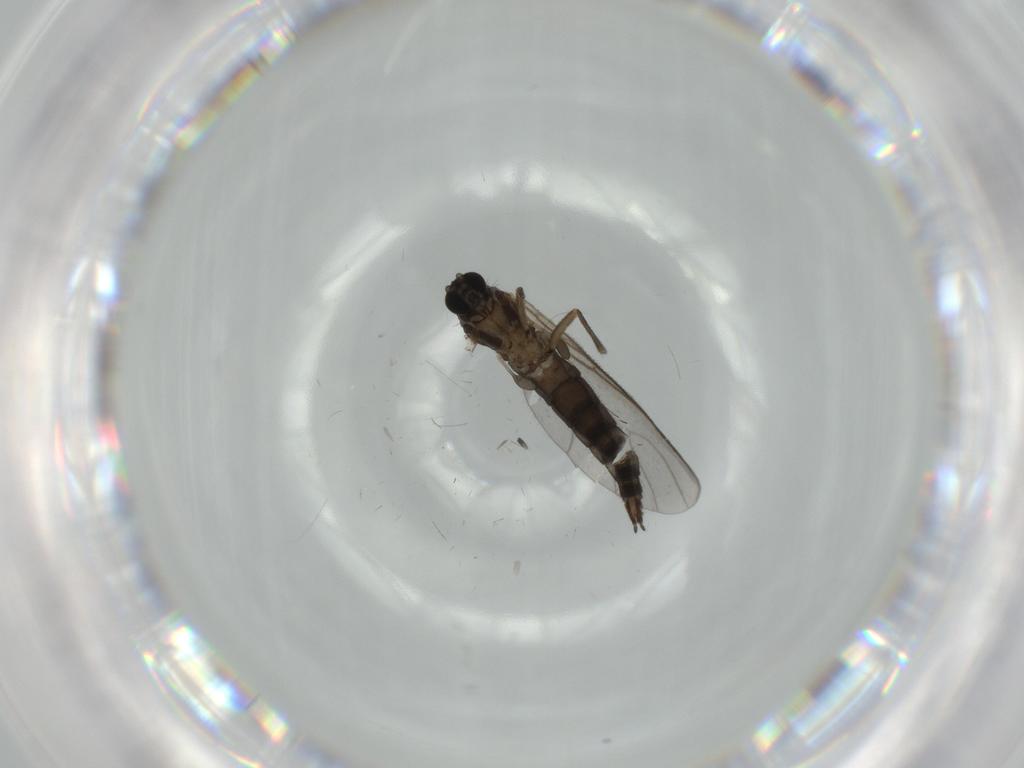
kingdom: Animalia
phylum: Arthropoda
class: Insecta
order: Diptera
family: Sciaridae
